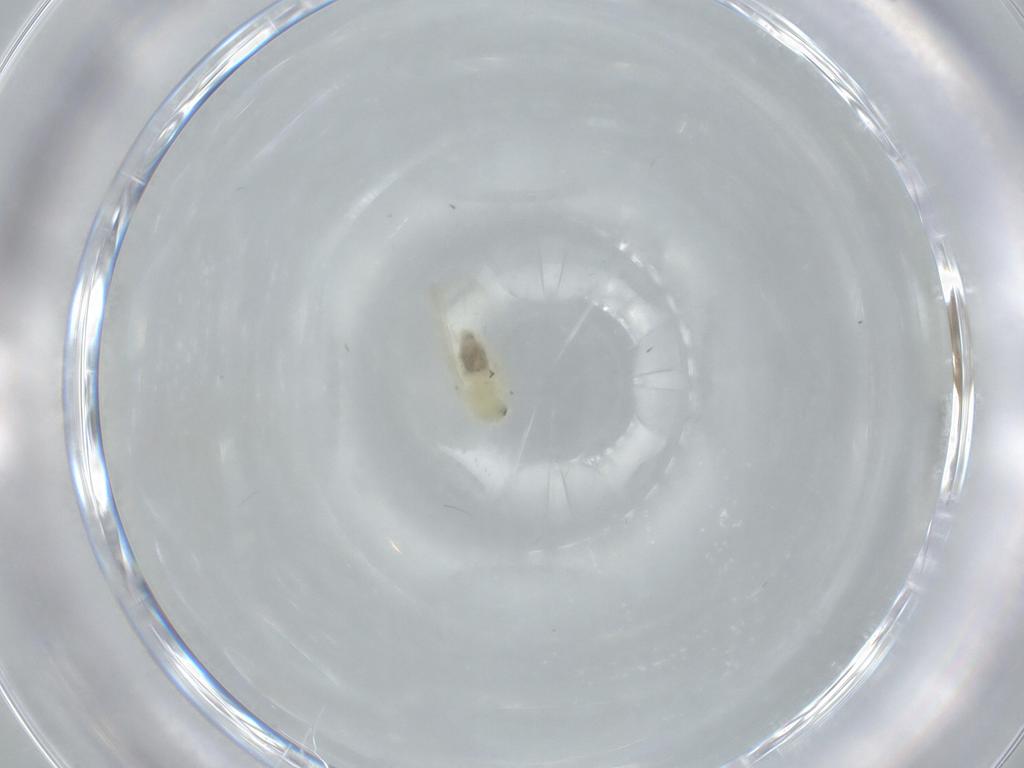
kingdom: Animalia
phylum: Arthropoda
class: Insecta
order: Hemiptera
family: Aleyrodidae
